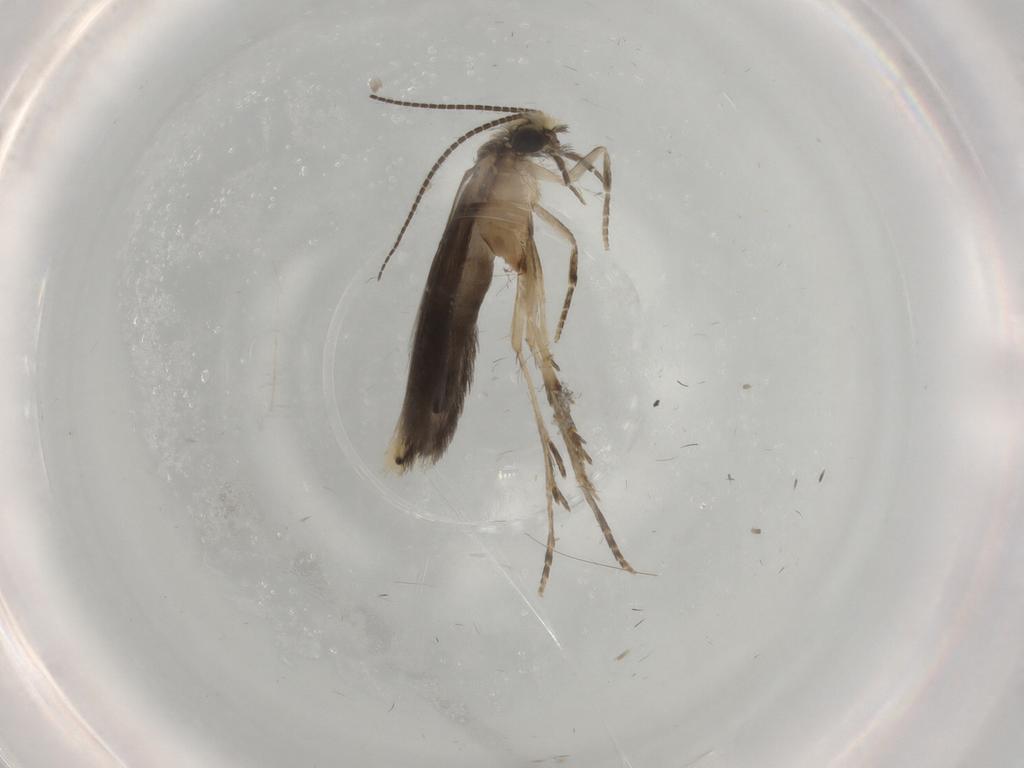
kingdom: Animalia
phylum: Arthropoda
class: Insecta
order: Trichoptera
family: Hydroptilidae
